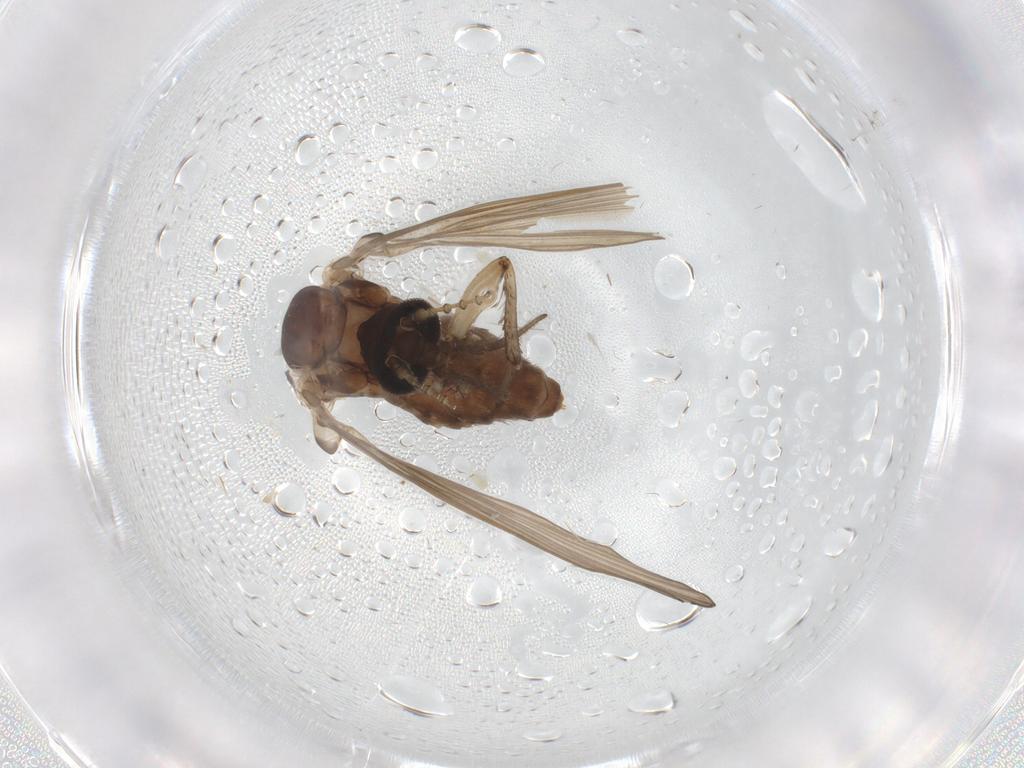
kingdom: Animalia
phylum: Arthropoda
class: Insecta
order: Diptera
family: Psychodidae
